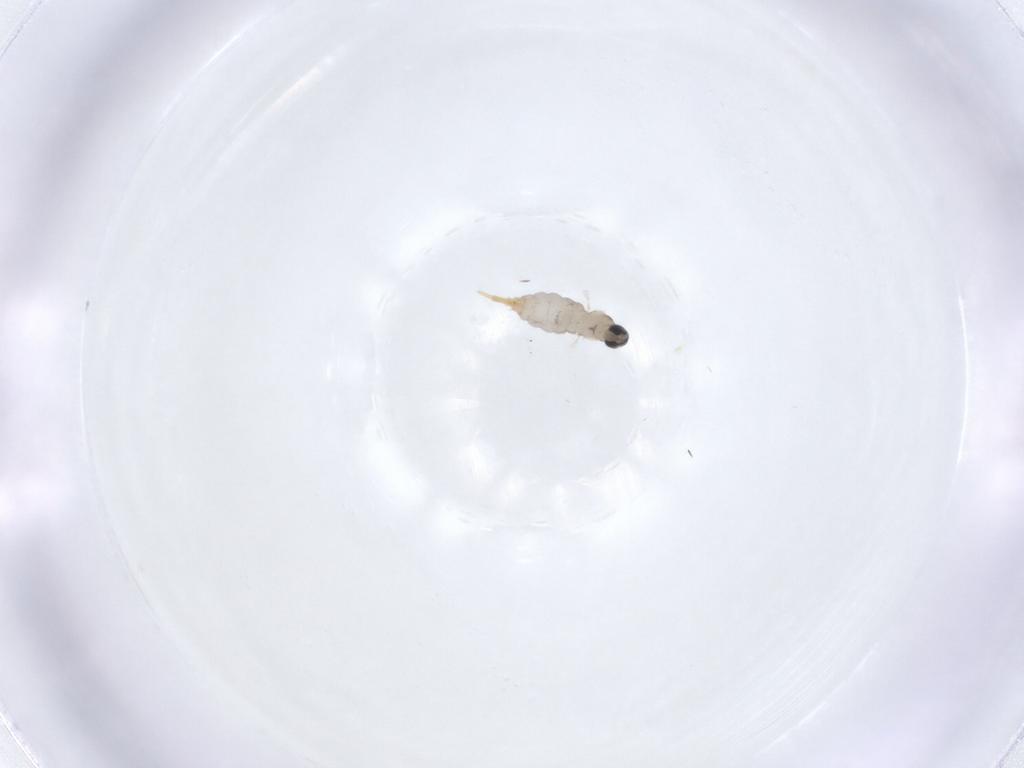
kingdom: Animalia
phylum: Arthropoda
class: Insecta
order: Diptera
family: Cecidomyiidae
